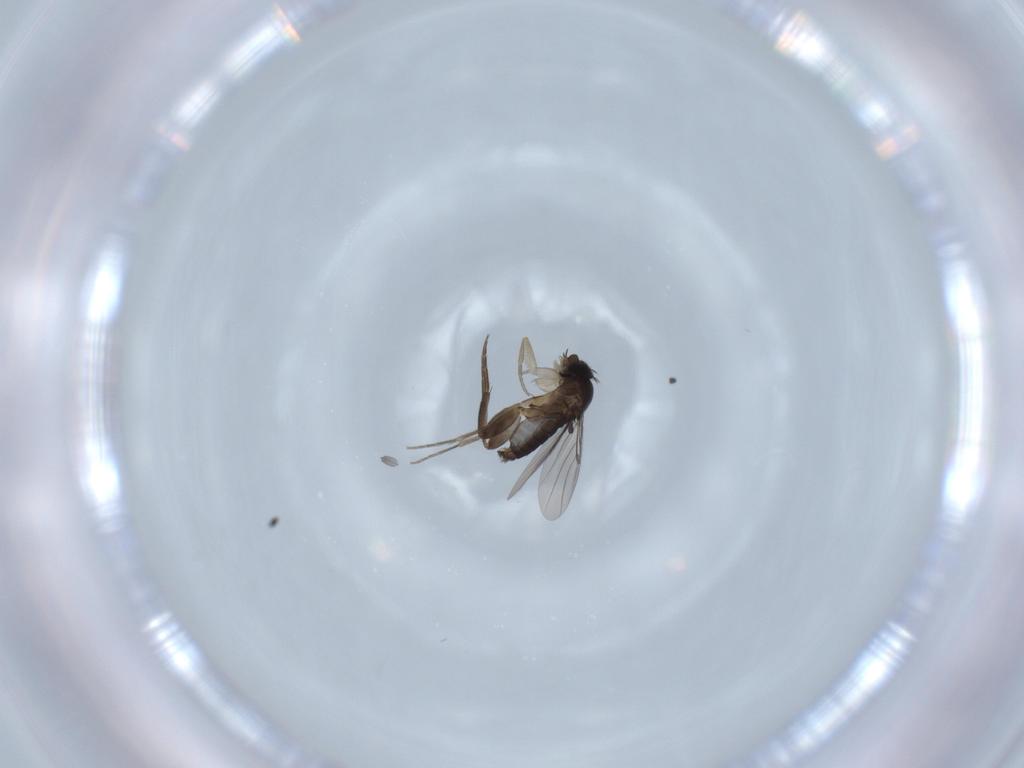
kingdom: Animalia
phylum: Arthropoda
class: Insecta
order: Diptera
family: Phoridae
